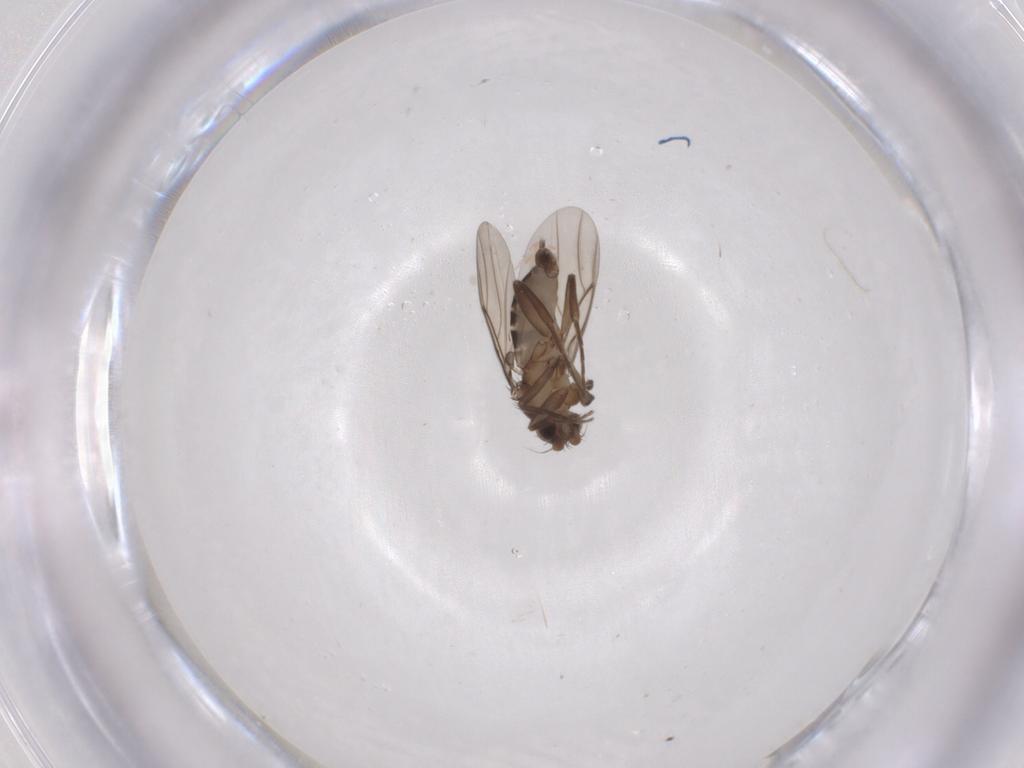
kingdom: Animalia
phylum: Arthropoda
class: Insecta
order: Diptera
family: Phoridae
